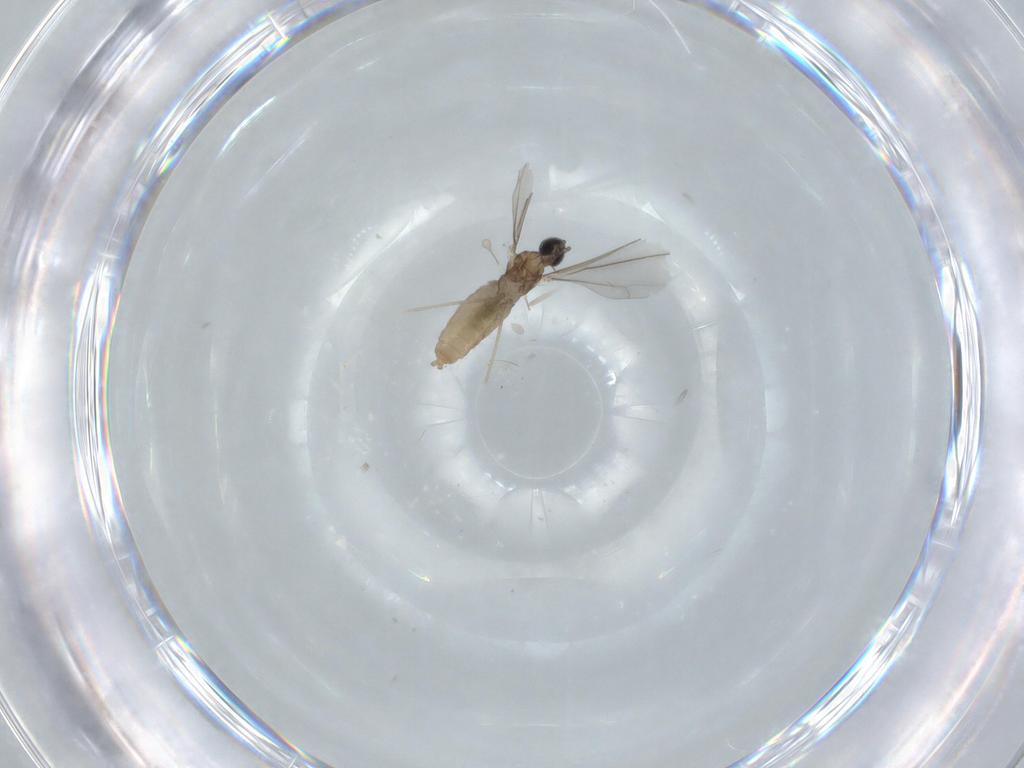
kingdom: Animalia
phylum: Arthropoda
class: Insecta
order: Diptera
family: Drosophilidae
